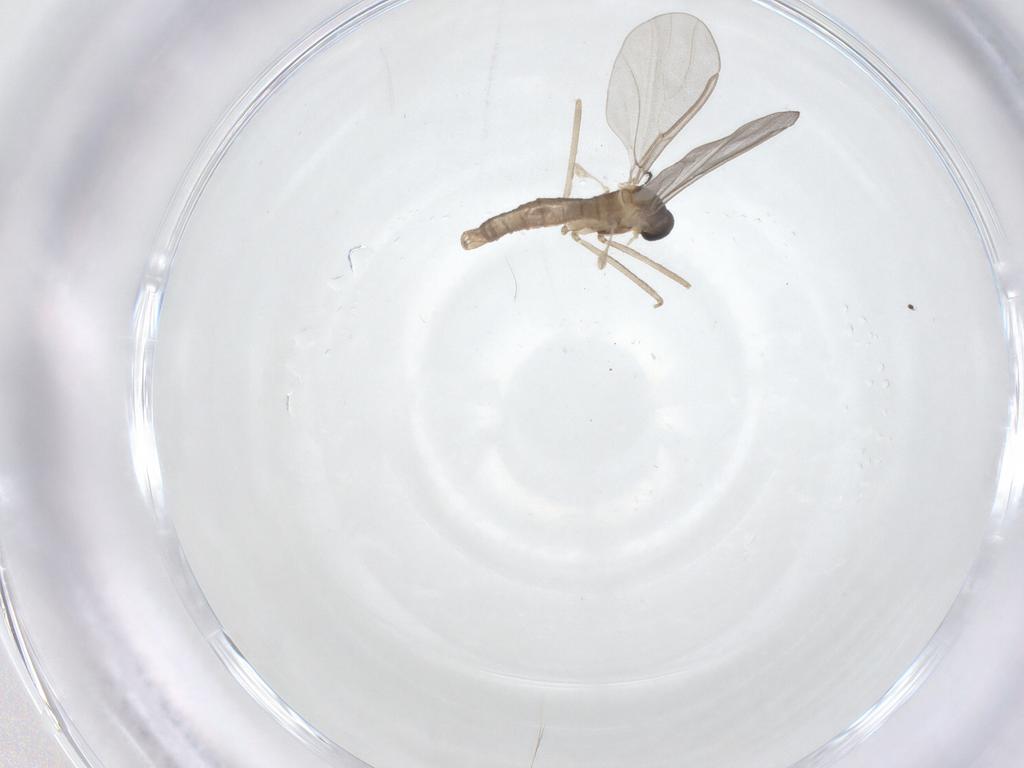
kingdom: Animalia
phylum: Arthropoda
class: Insecta
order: Diptera
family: Cecidomyiidae
